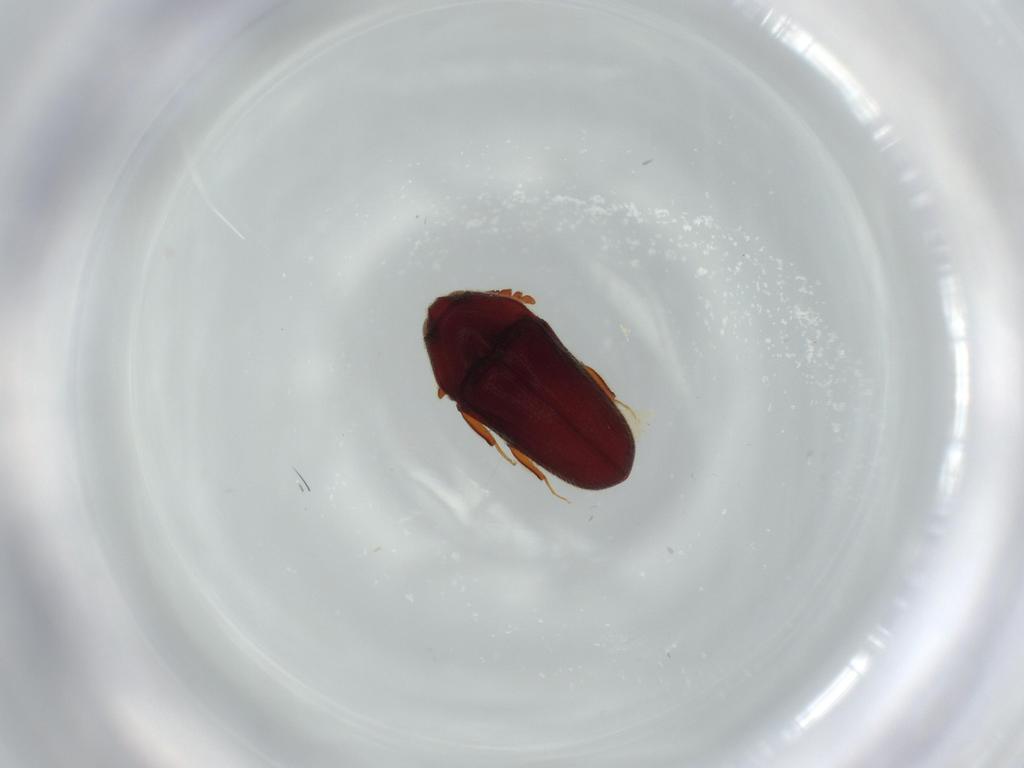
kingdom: Animalia
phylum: Arthropoda
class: Insecta
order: Coleoptera
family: Throscidae
